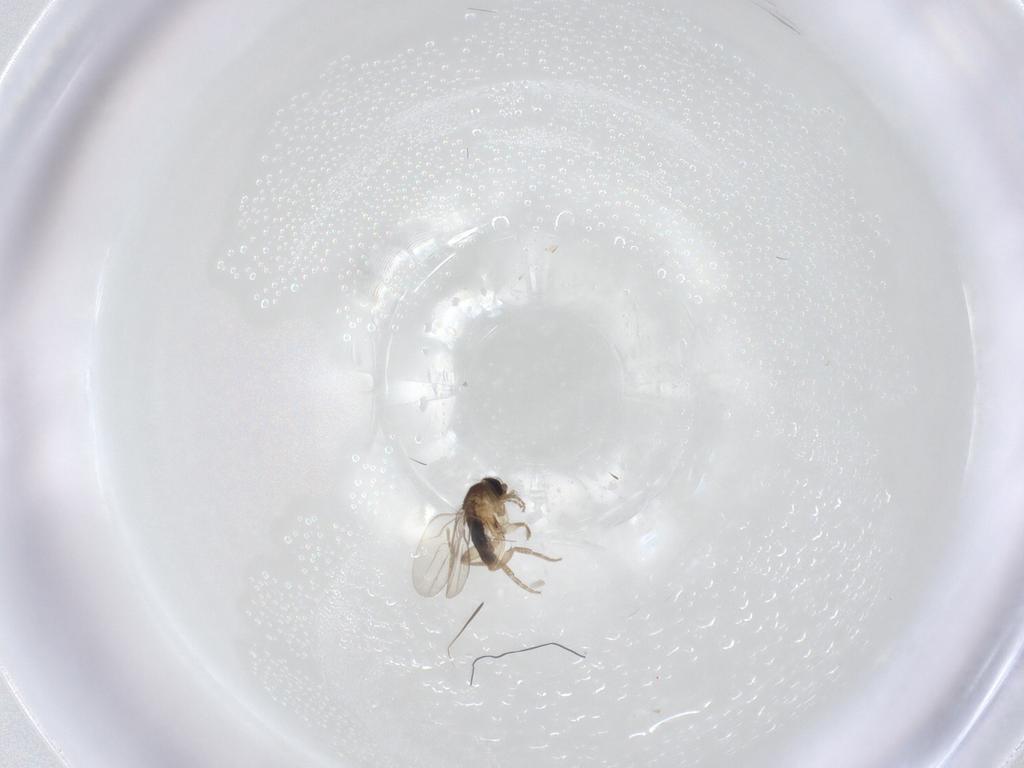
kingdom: Animalia
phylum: Arthropoda
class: Insecta
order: Diptera
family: Phoridae
